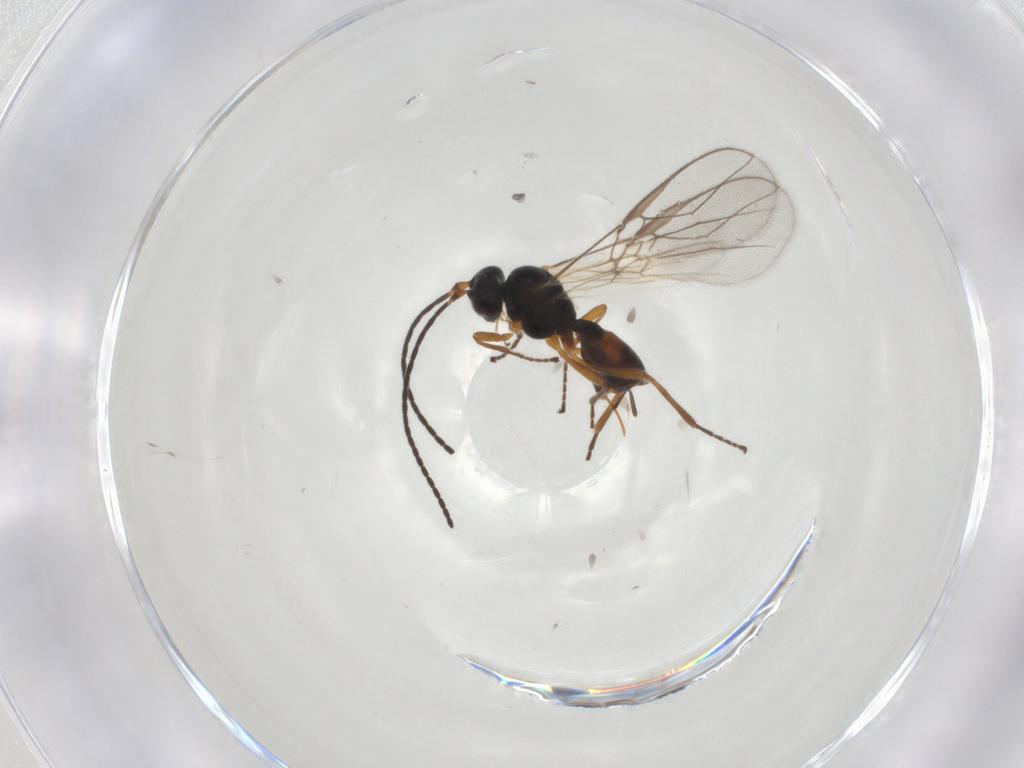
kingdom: Animalia
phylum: Arthropoda
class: Insecta
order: Hymenoptera
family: Braconidae
